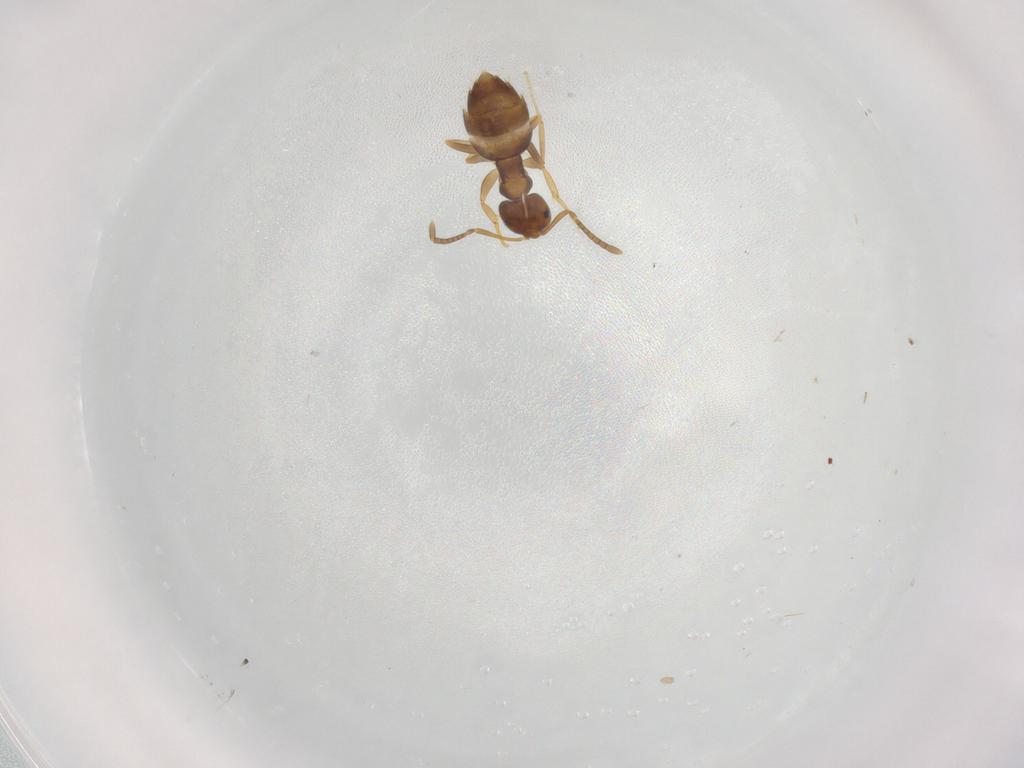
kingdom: Animalia
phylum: Arthropoda
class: Insecta
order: Hymenoptera
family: Formicidae
